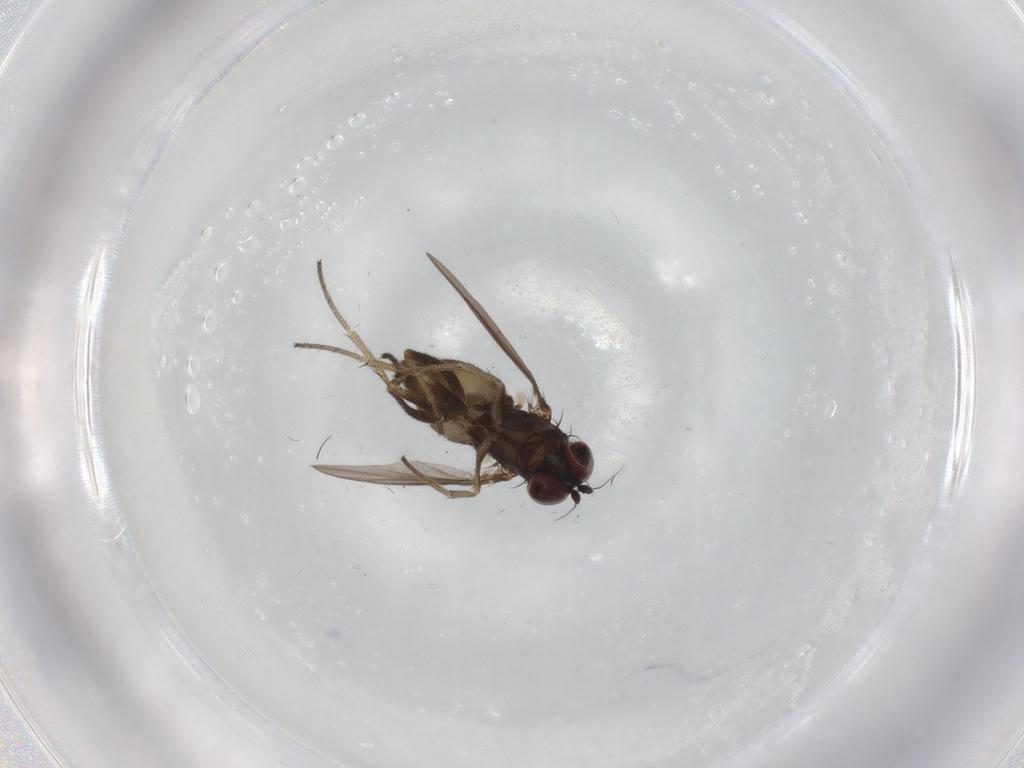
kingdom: Animalia
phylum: Arthropoda
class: Insecta
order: Diptera
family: Dolichopodidae
